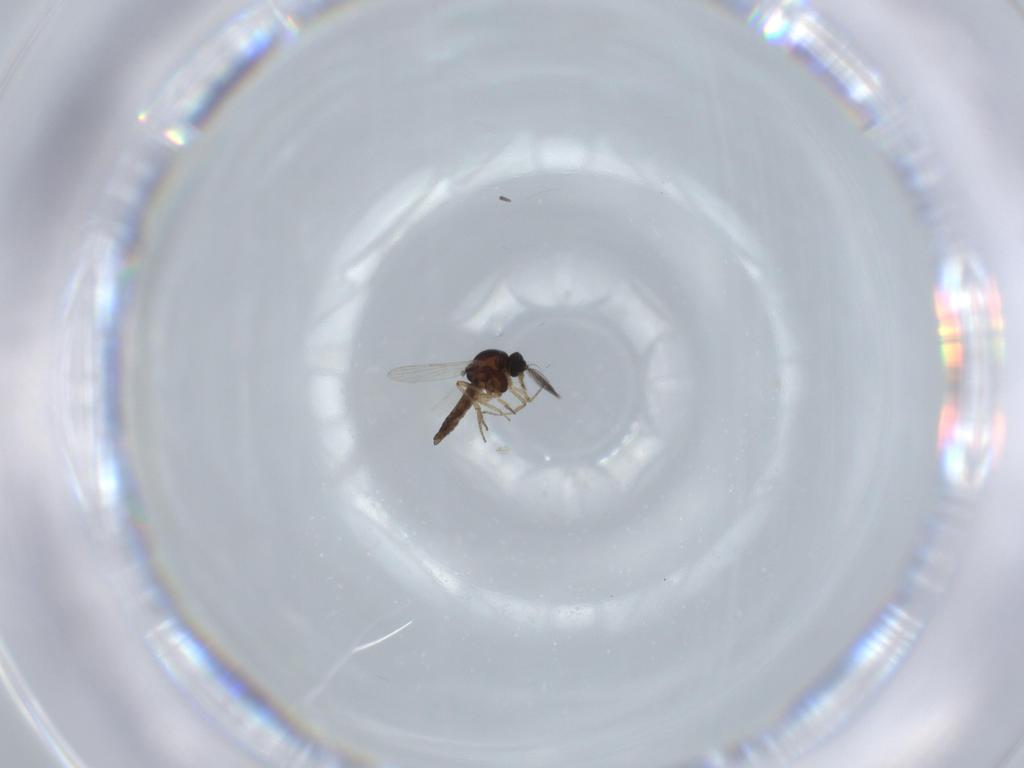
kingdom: Animalia
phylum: Arthropoda
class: Insecta
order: Diptera
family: Ceratopogonidae
